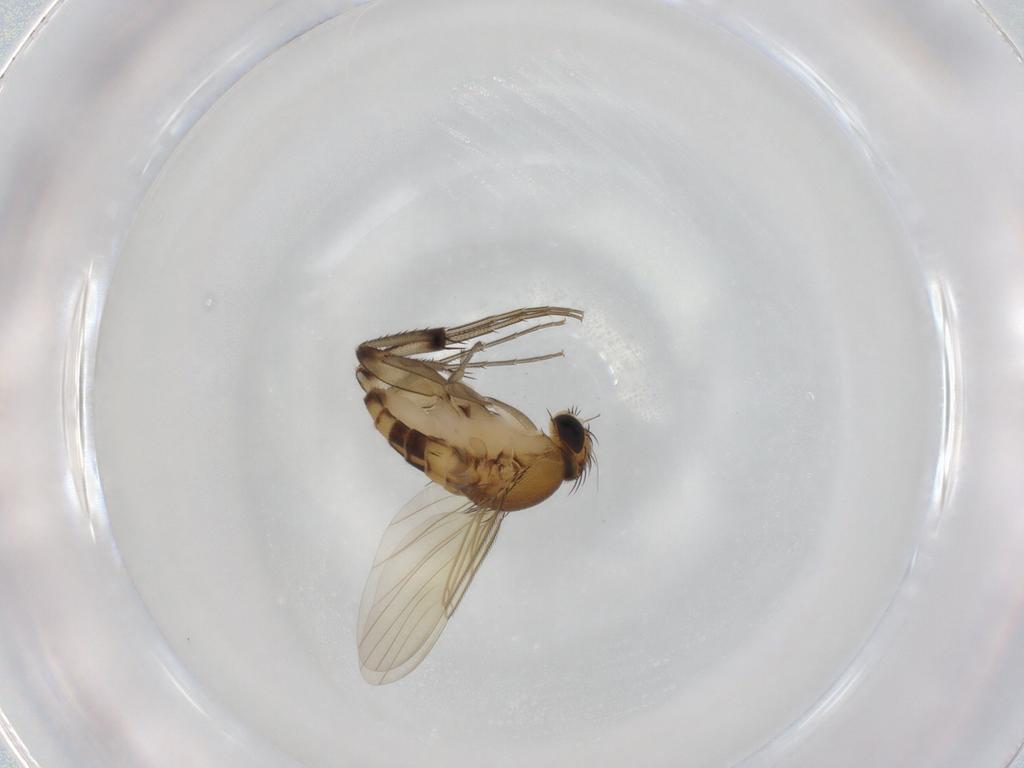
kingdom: Animalia
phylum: Arthropoda
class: Insecta
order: Diptera
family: Phoridae
